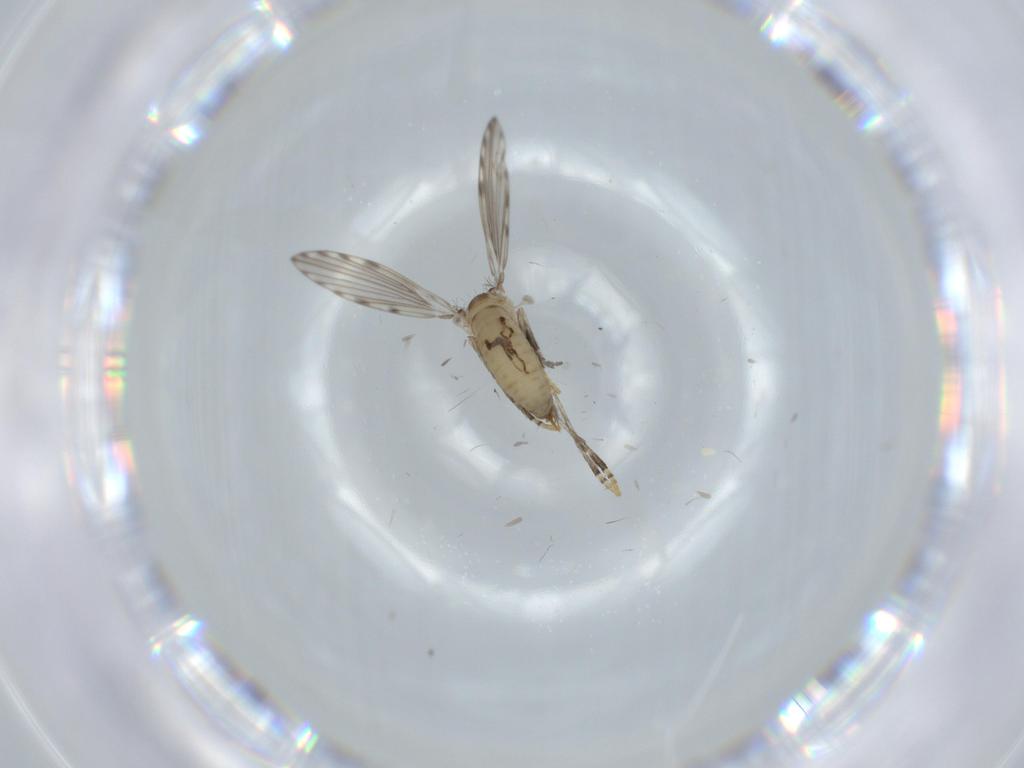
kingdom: Animalia
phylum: Arthropoda
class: Insecta
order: Diptera
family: Psychodidae
